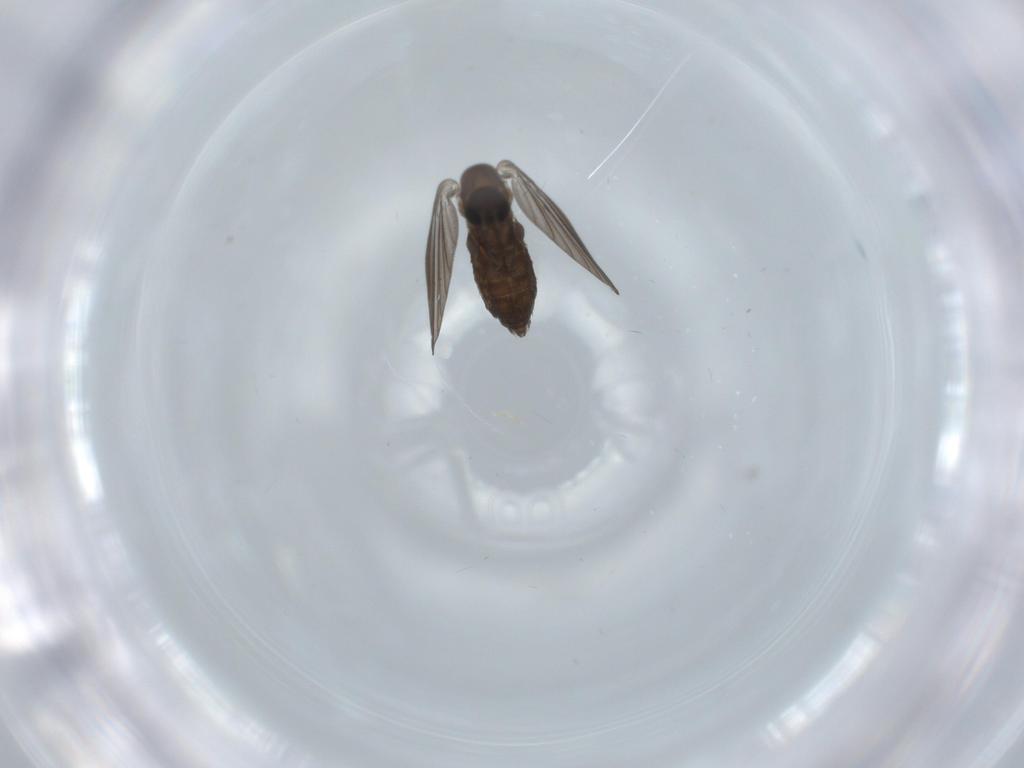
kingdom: Animalia
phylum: Arthropoda
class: Insecta
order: Diptera
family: Psychodidae
